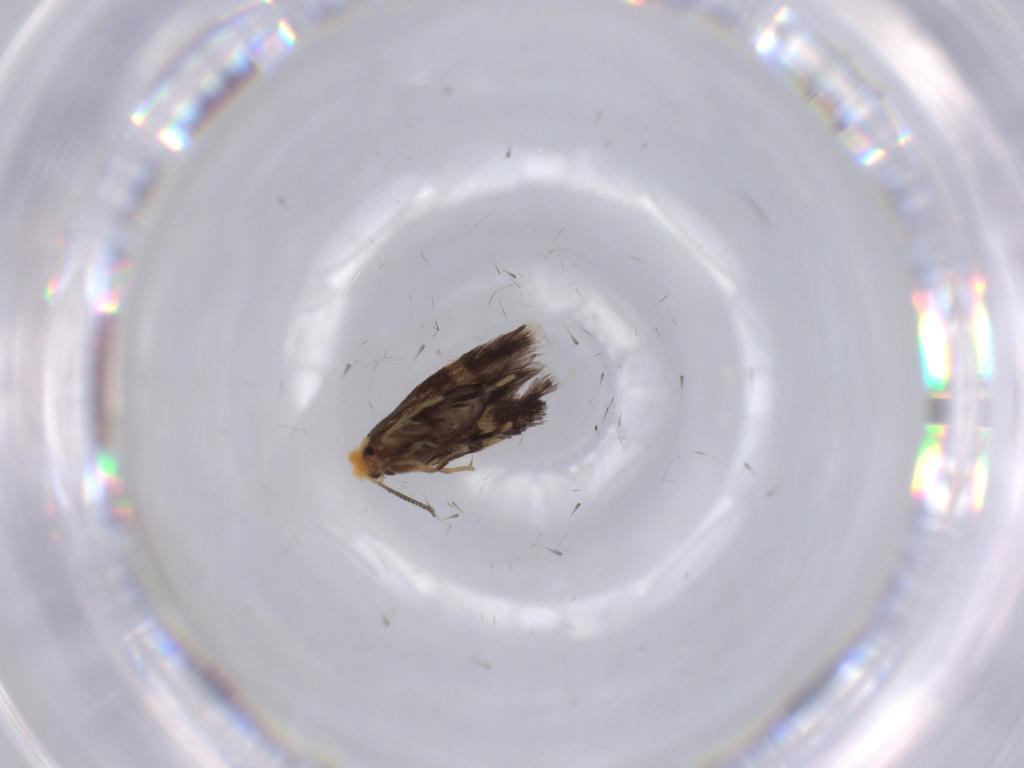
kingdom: Animalia
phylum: Arthropoda
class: Insecta
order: Lepidoptera
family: Nepticulidae
